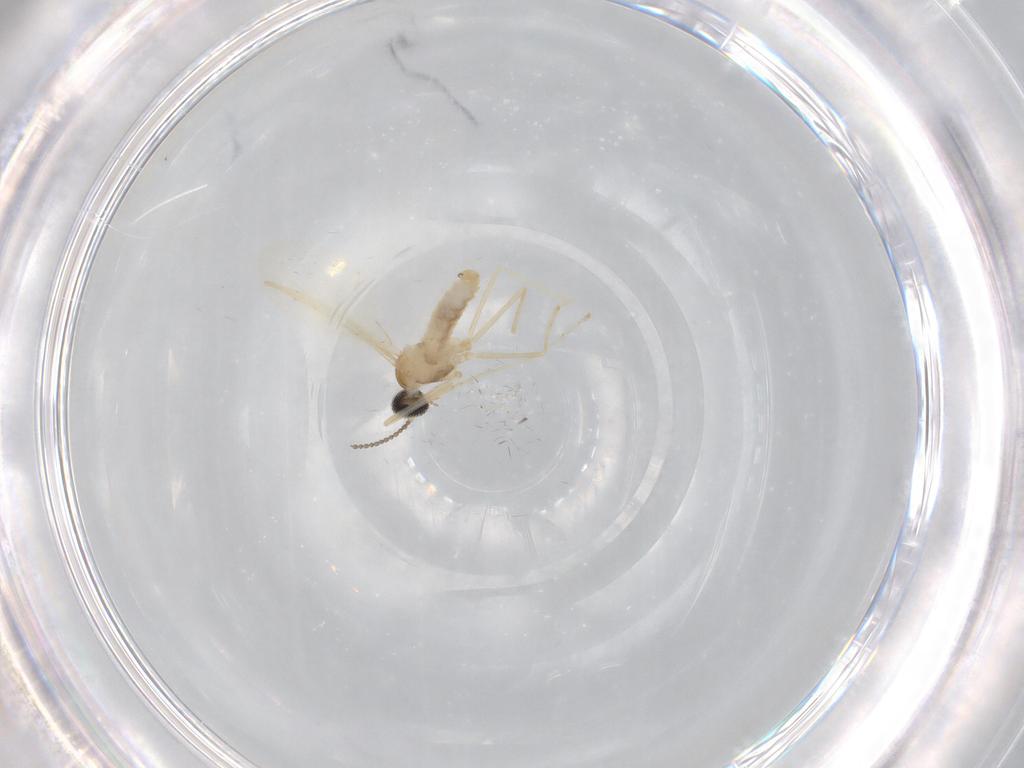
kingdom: Animalia
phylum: Arthropoda
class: Insecta
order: Diptera
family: Cecidomyiidae
